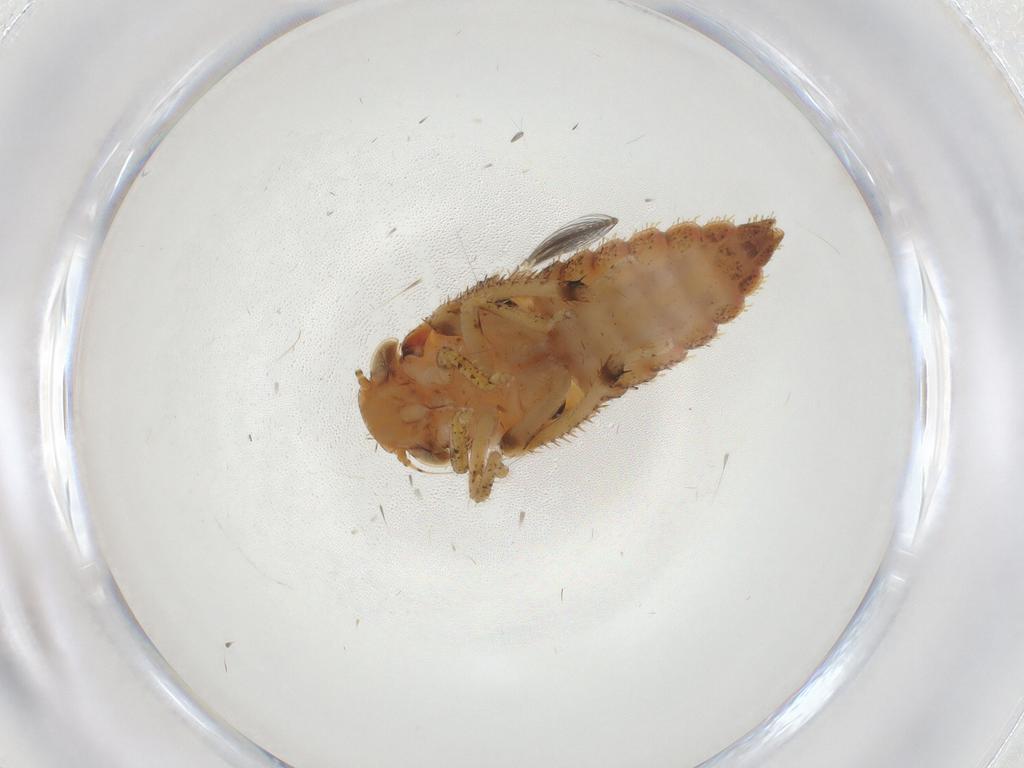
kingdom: Animalia
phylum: Arthropoda
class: Insecta
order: Hemiptera
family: Cicadellidae
